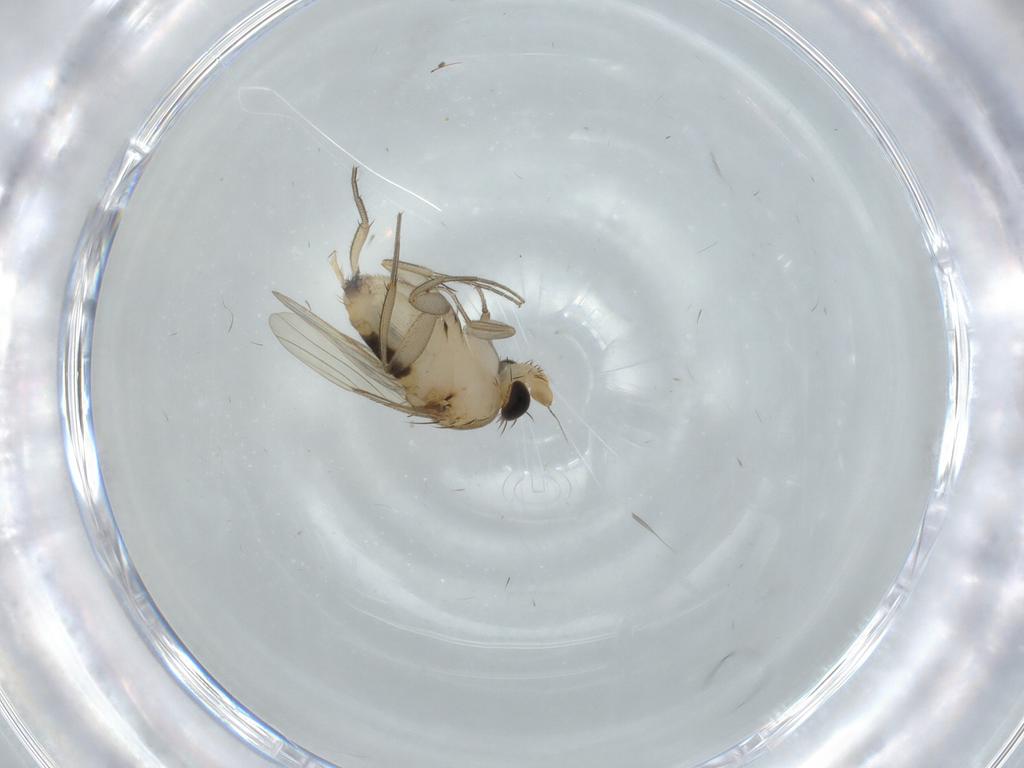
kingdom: Animalia
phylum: Arthropoda
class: Insecta
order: Diptera
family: Phoridae
